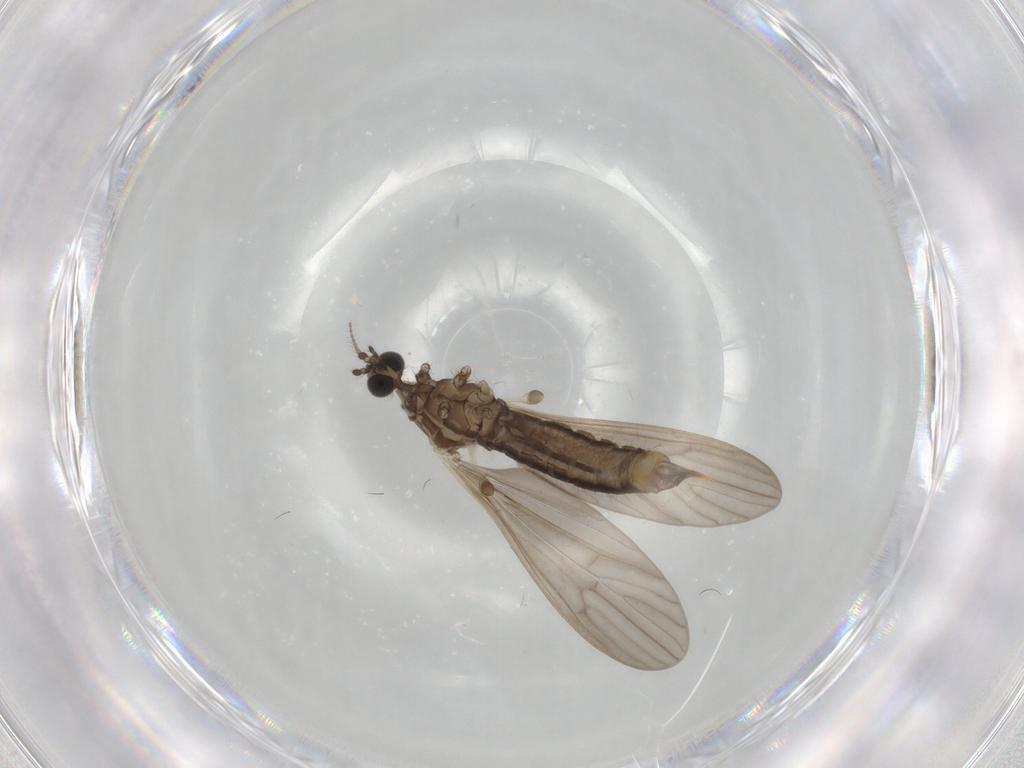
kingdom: Animalia
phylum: Arthropoda
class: Insecta
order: Diptera
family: Limoniidae
